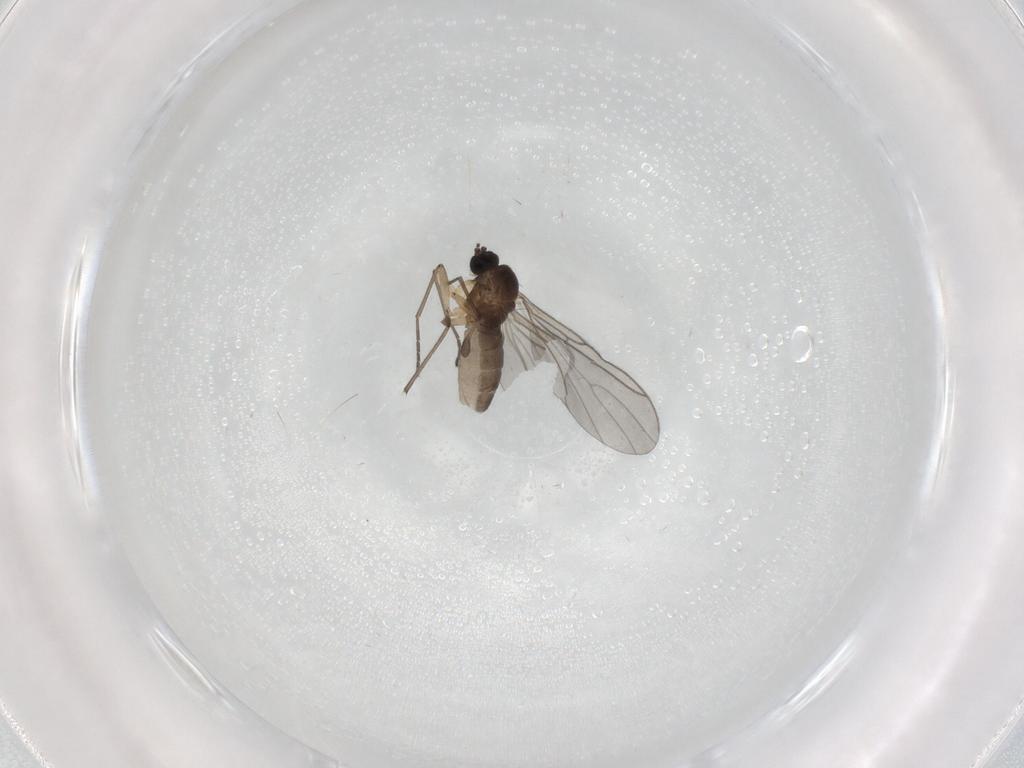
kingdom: Animalia
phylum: Arthropoda
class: Insecta
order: Diptera
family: Sciaridae
